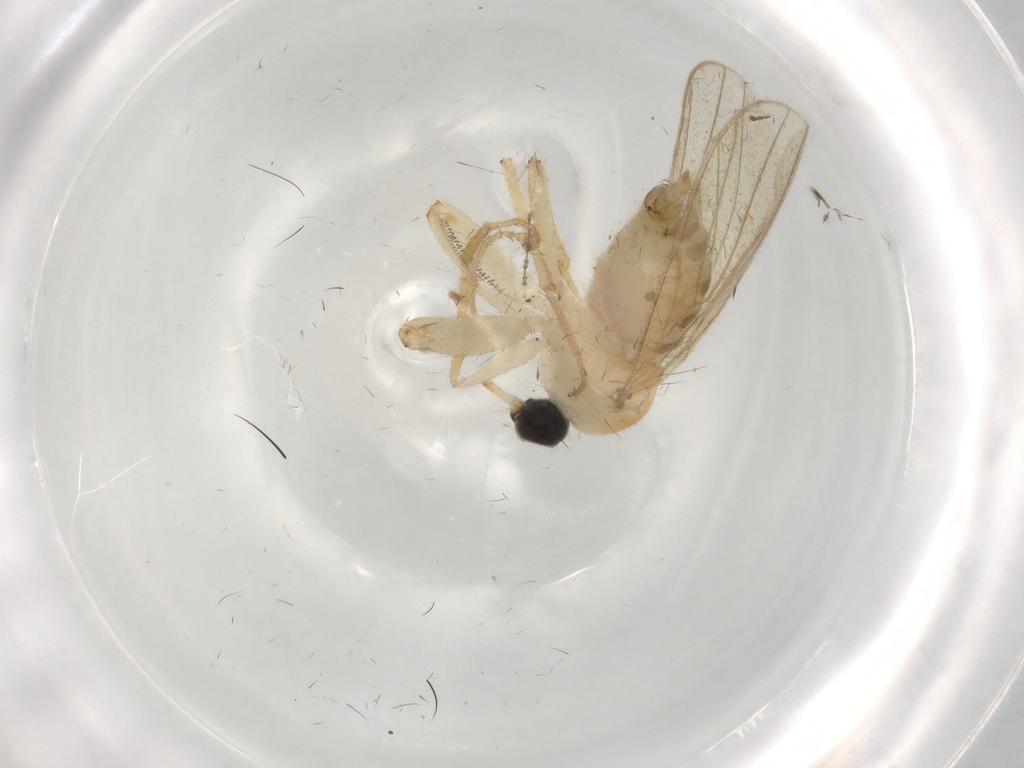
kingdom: Animalia
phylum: Arthropoda
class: Insecta
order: Diptera
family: Hybotidae
